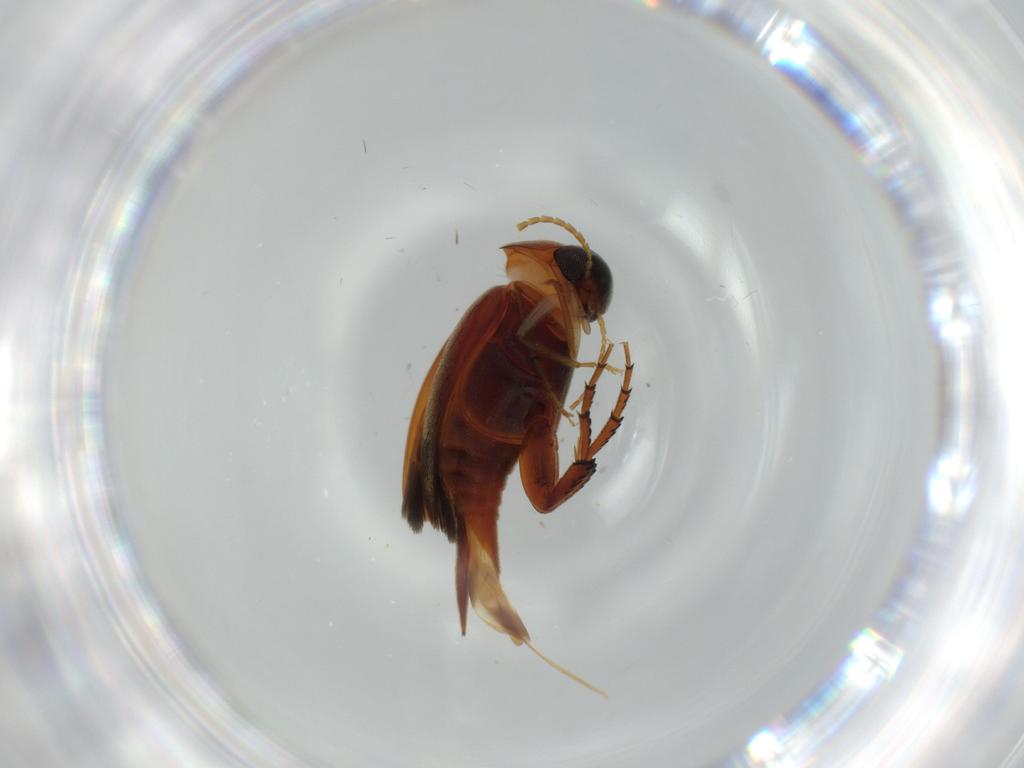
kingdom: Animalia
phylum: Arthropoda
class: Insecta
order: Coleoptera
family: Mordellidae
